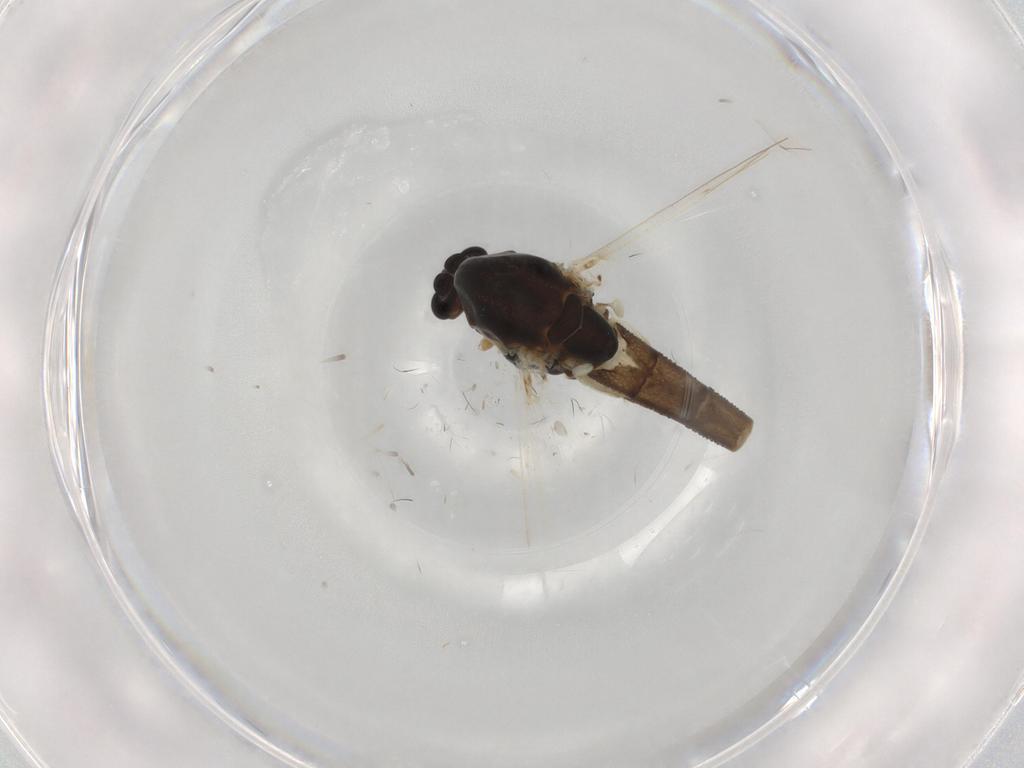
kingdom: Animalia
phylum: Arthropoda
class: Insecta
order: Diptera
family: Chironomidae
